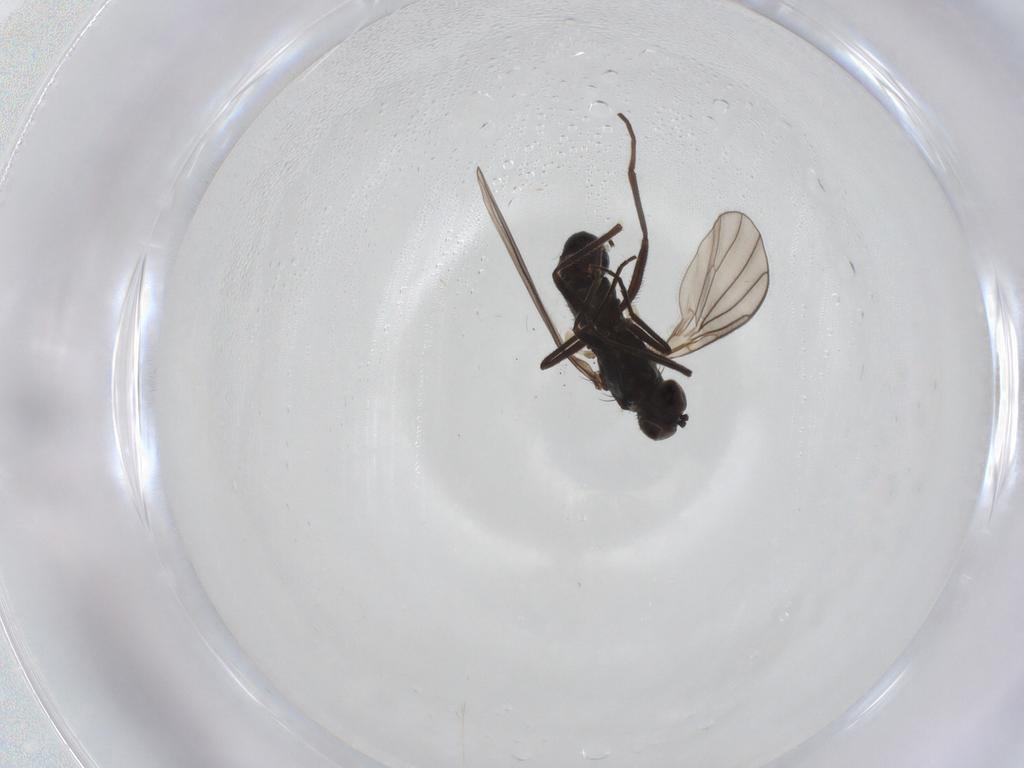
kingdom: Animalia
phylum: Arthropoda
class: Insecta
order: Diptera
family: Dolichopodidae
